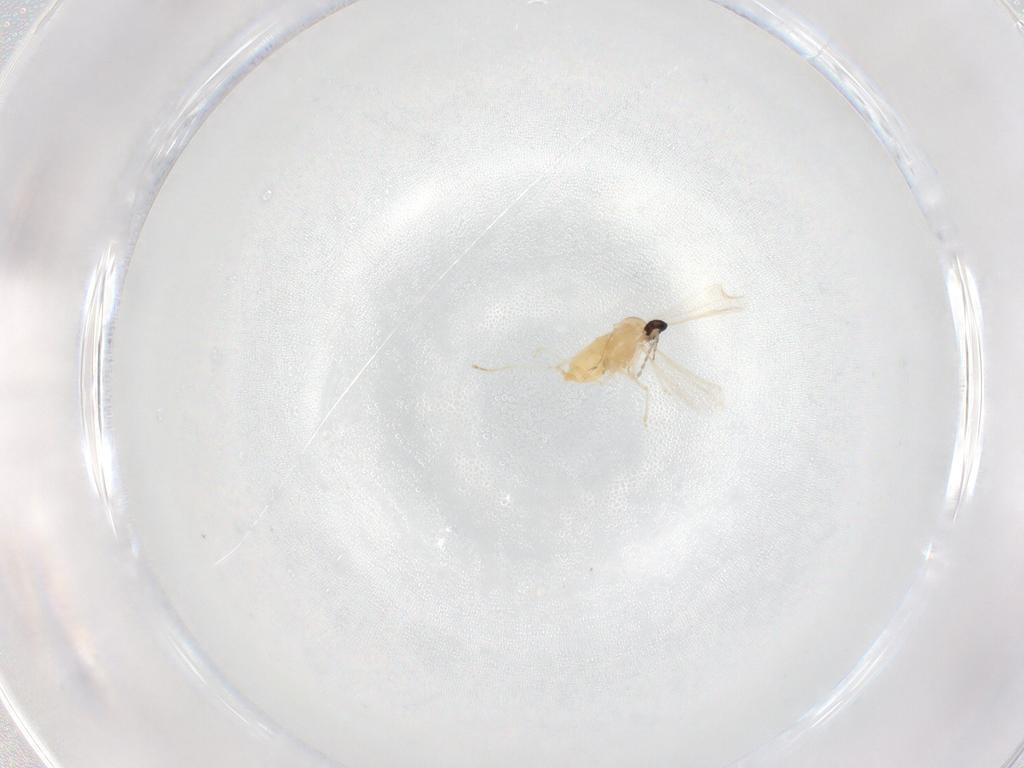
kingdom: Animalia
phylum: Arthropoda
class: Insecta
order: Diptera
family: Cecidomyiidae
